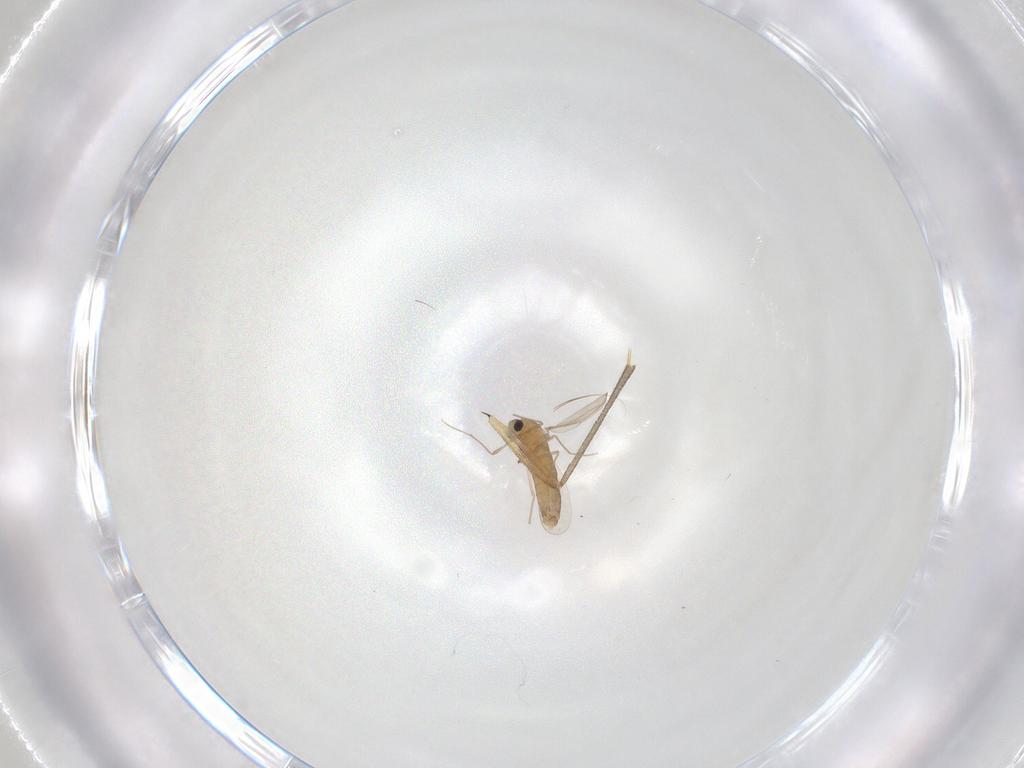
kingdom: Animalia
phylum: Arthropoda
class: Insecta
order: Diptera
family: Chironomidae
